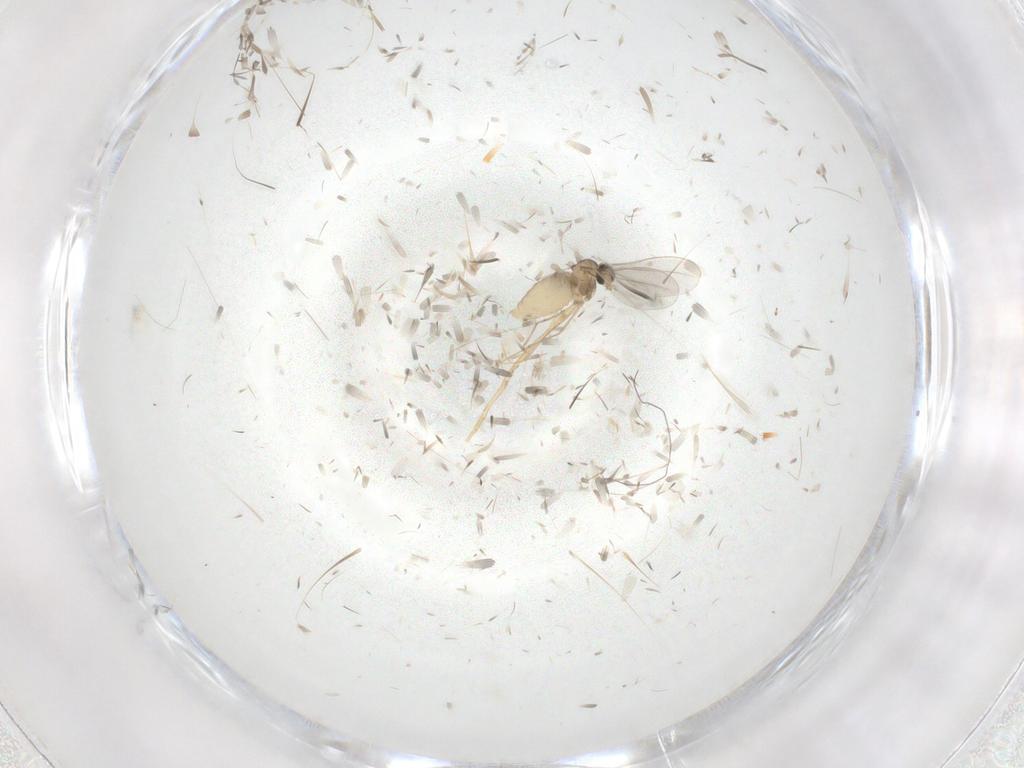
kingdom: Animalia
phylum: Arthropoda
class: Insecta
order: Diptera
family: Cecidomyiidae
